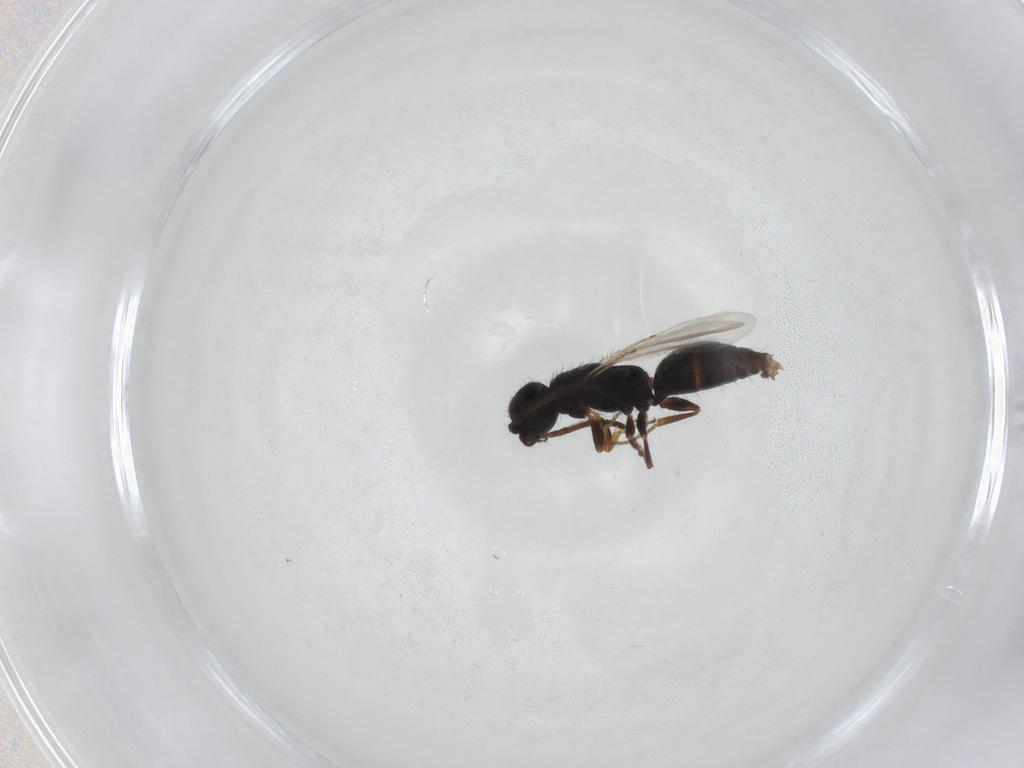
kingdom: Animalia
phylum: Arthropoda
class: Insecta
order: Hymenoptera
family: Bethylidae
